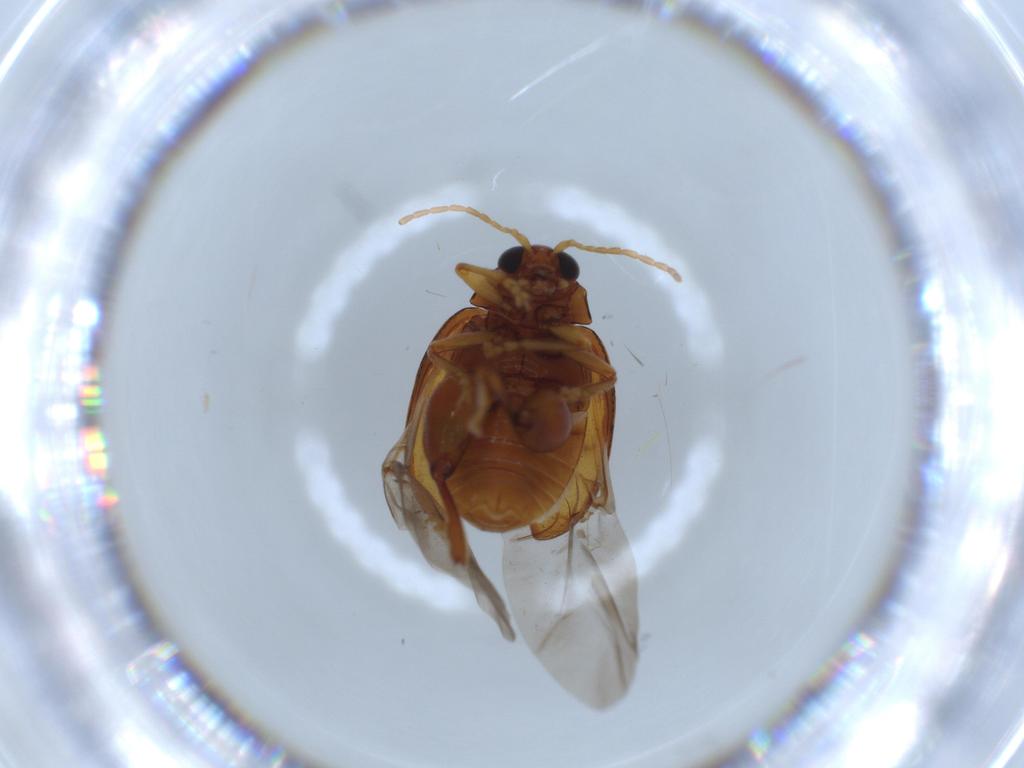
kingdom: Animalia
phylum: Arthropoda
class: Insecta
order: Coleoptera
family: Chrysomelidae
